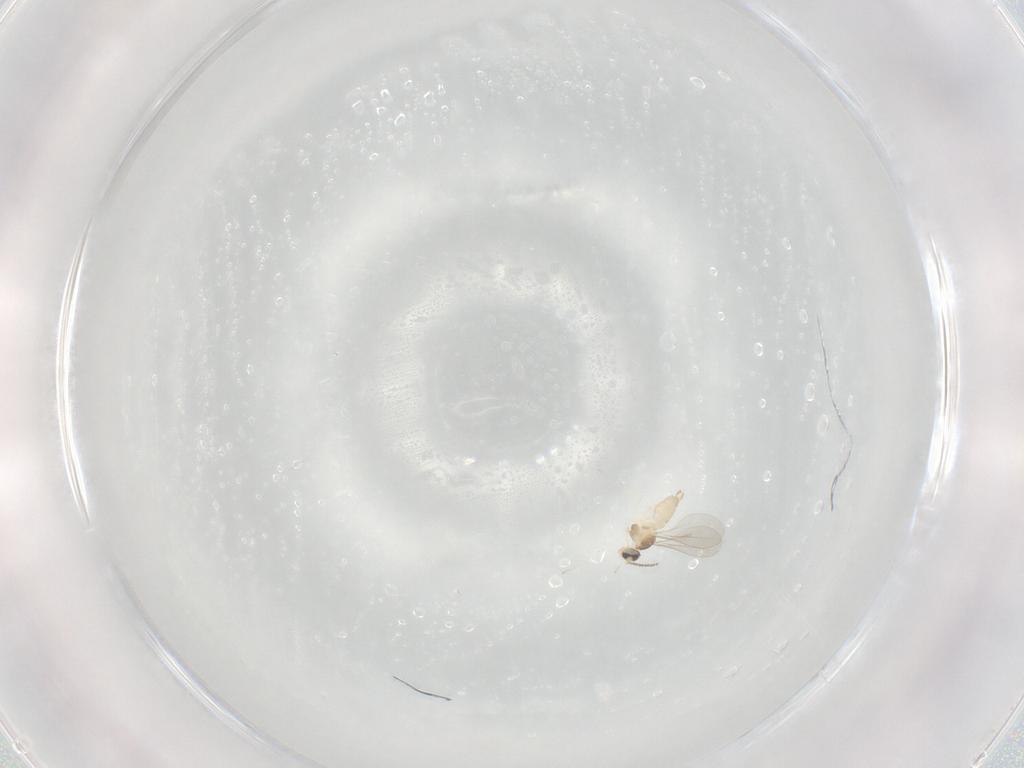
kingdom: Animalia
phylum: Arthropoda
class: Insecta
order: Diptera
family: Cecidomyiidae
